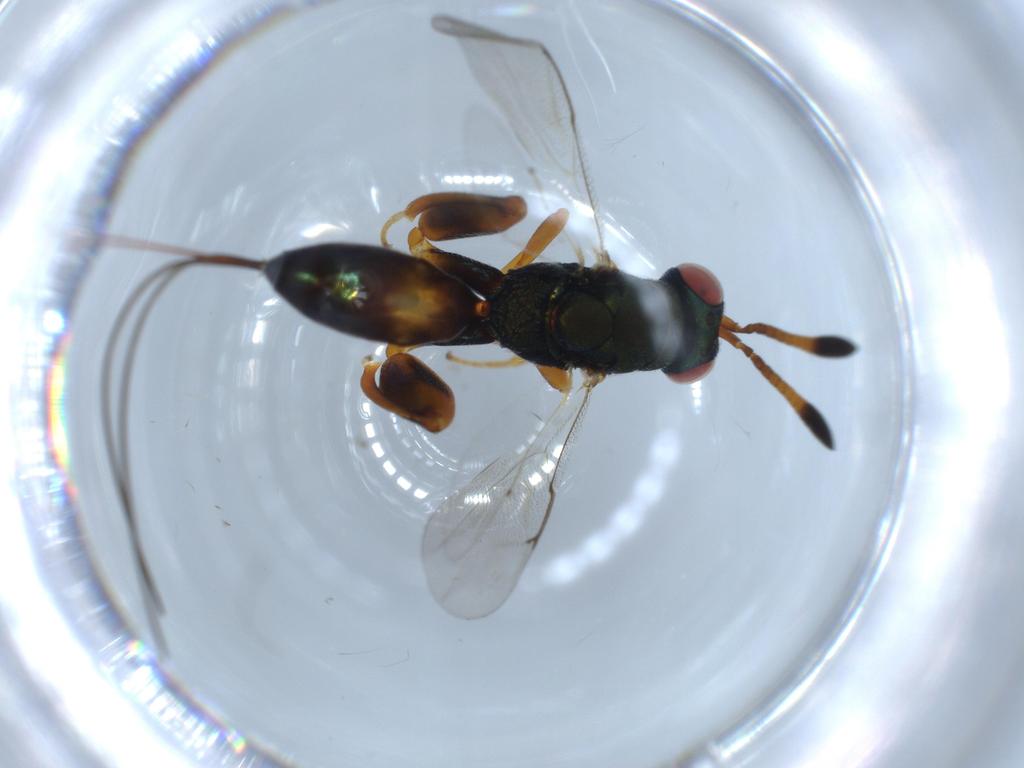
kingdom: Animalia
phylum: Arthropoda
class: Insecta
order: Hymenoptera
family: Torymidae
